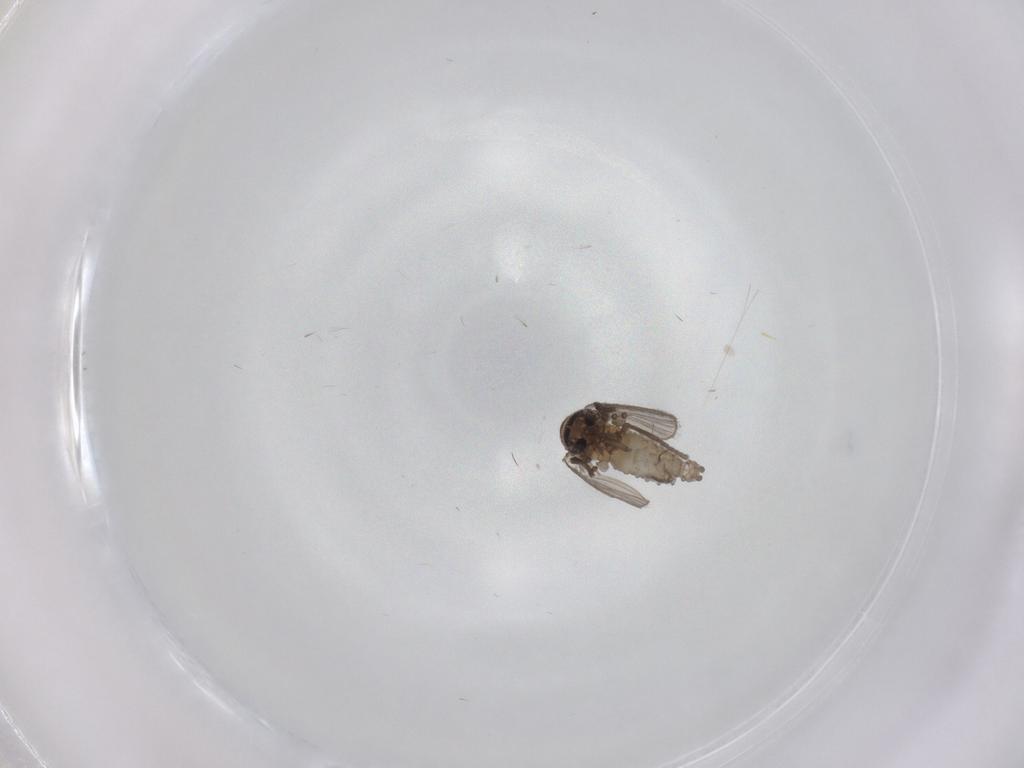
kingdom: Animalia
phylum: Arthropoda
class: Insecta
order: Diptera
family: Psychodidae
